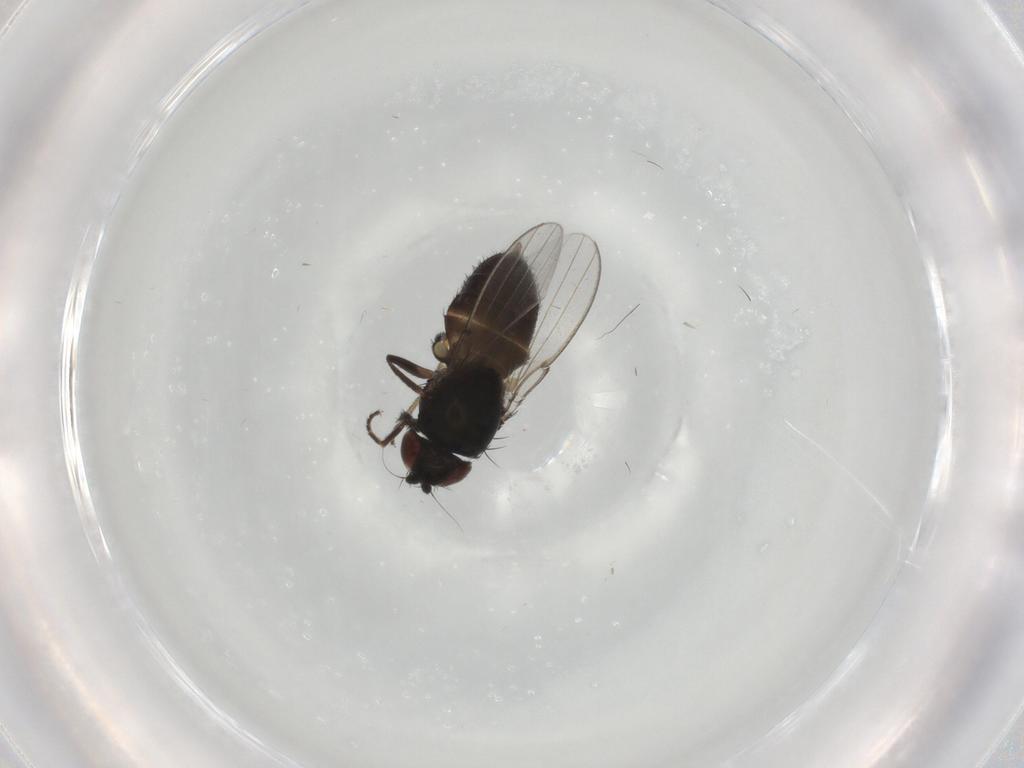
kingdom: Animalia
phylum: Arthropoda
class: Insecta
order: Diptera
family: Milichiidae
